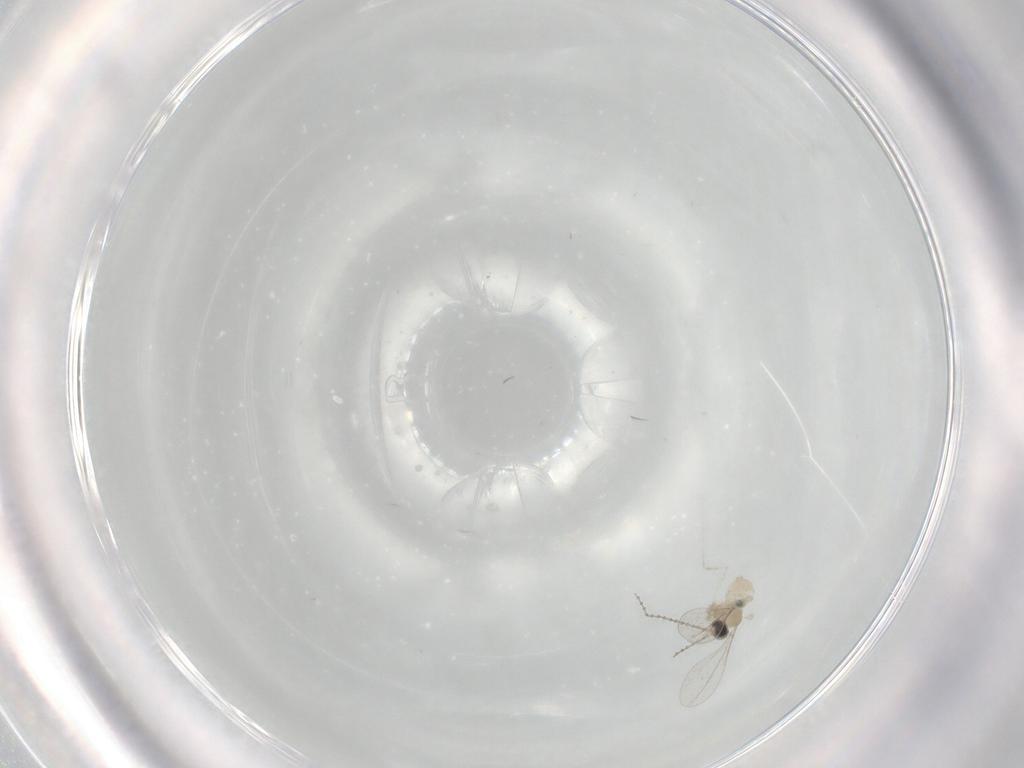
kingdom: Animalia
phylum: Arthropoda
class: Insecta
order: Diptera
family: Cecidomyiidae
